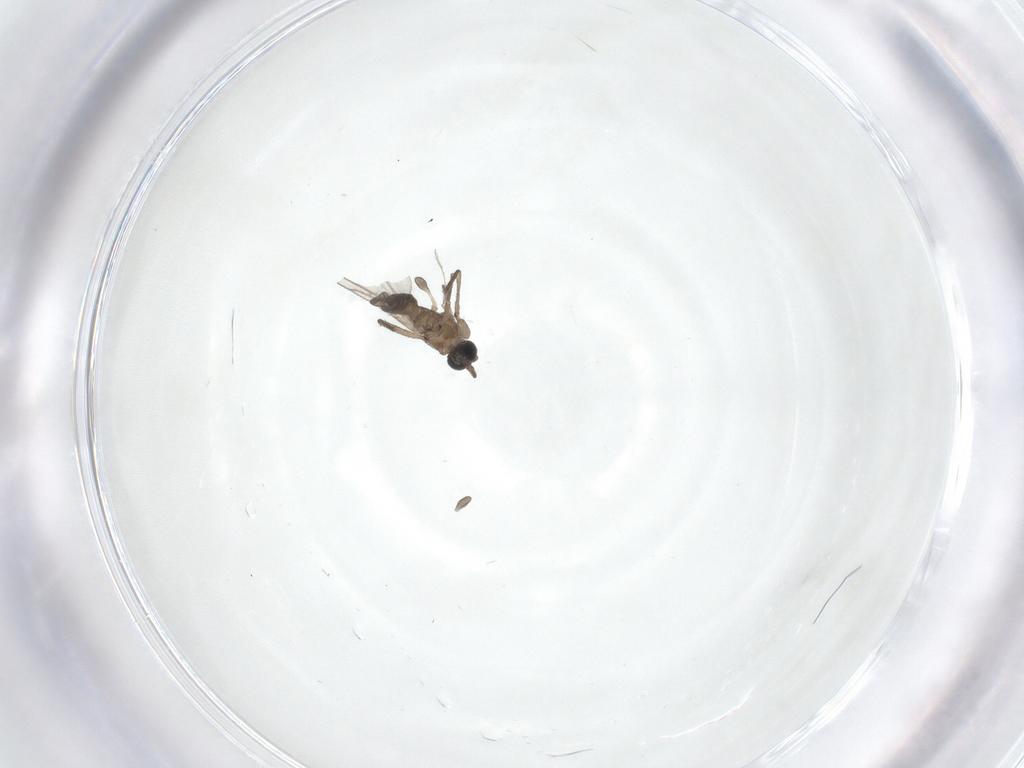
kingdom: Animalia
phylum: Arthropoda
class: Insecta
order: Diptera
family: Sciaridae
